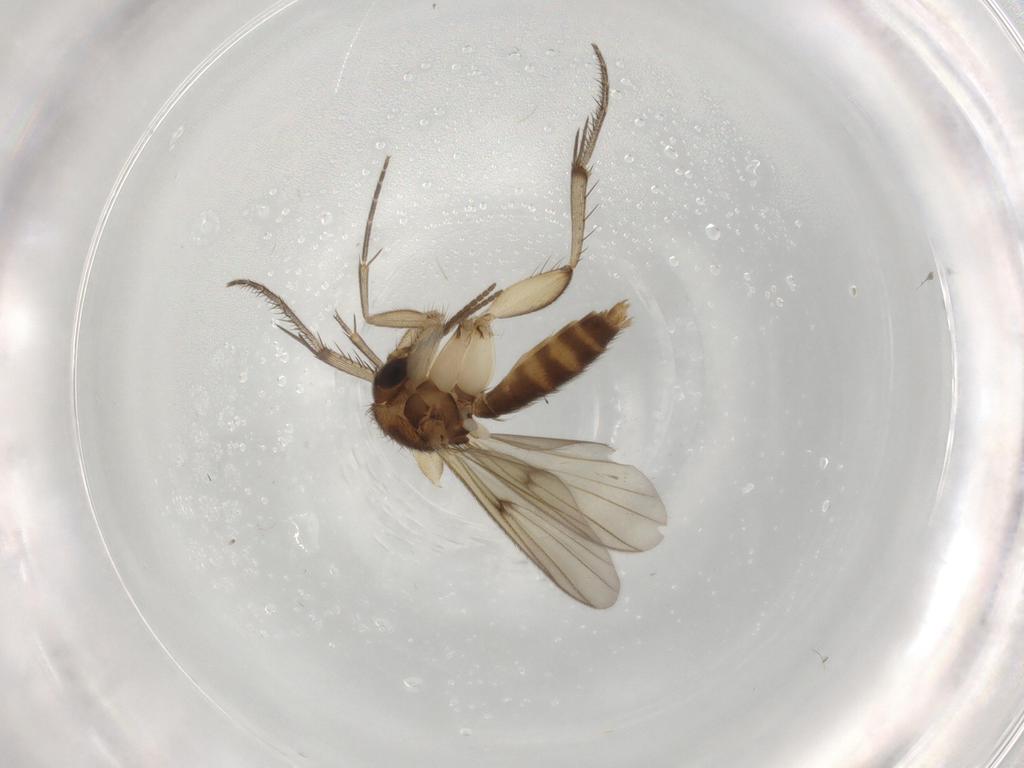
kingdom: Animalia
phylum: Arthropoda
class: Insecta
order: Diptera
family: Mycetophilidae
